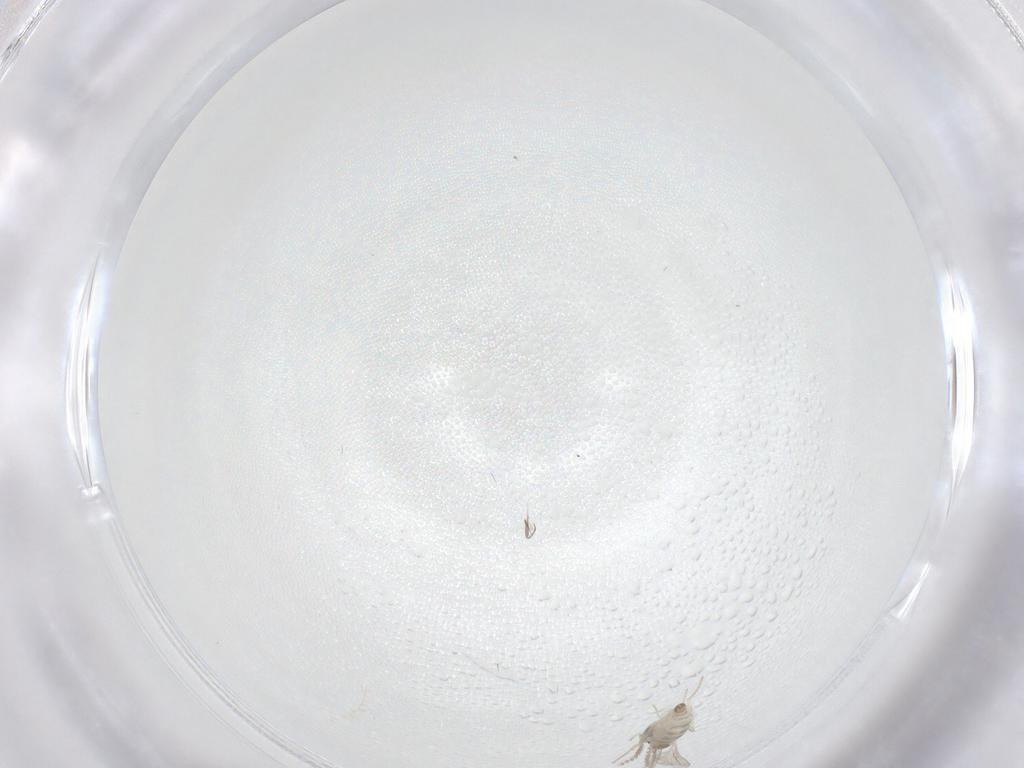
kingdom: Animalia
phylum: Arthropoda
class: Insecta
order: Diptera
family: Cecidomyiidae
